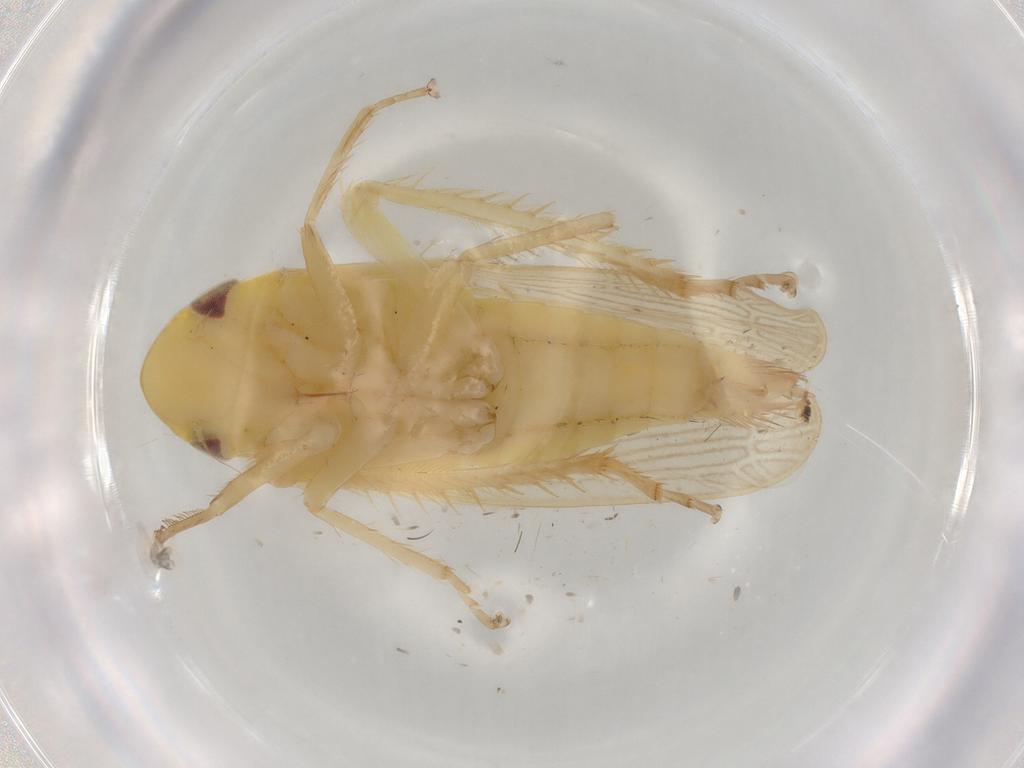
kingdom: Animalia
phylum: Arthropoda
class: Insecta
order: Hemiptera
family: Cicadellidae
